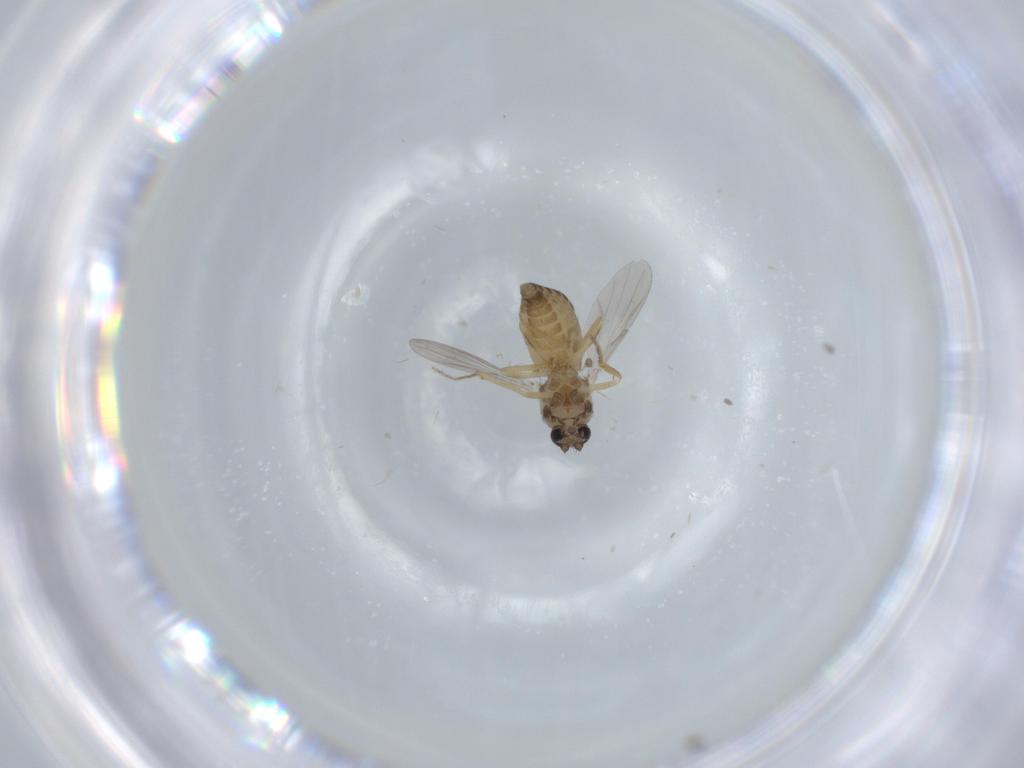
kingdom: Animalia
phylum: Arthropoda
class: Insecta
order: Diptera
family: Ceratopogonidae
